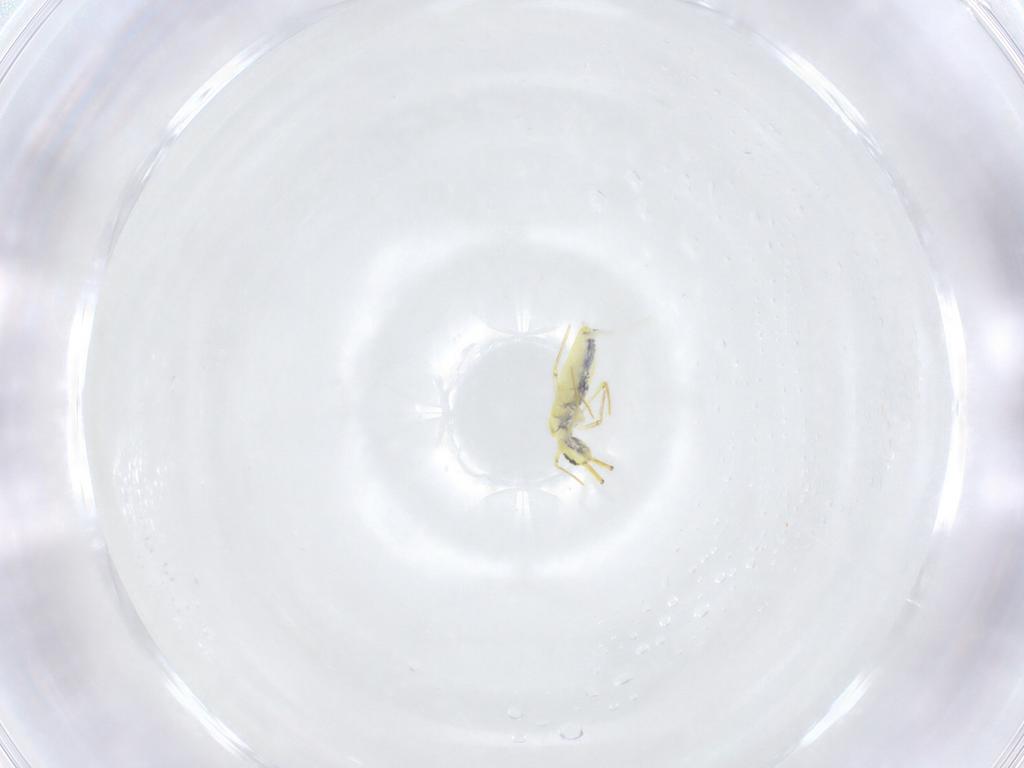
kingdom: Animalia
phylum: Arthropoda
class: Collembola
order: Entomobryomorpha
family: Entomobryidae
